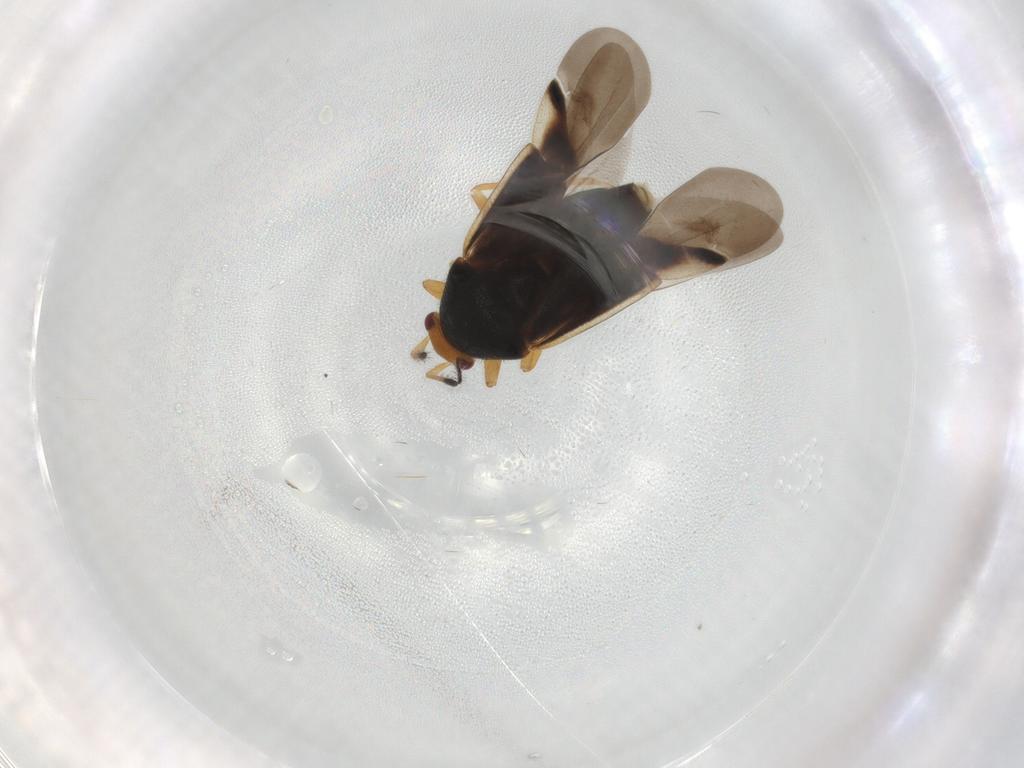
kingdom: Animalia
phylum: Arthropoda
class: Insecta
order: Hemiptera
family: Miridae
